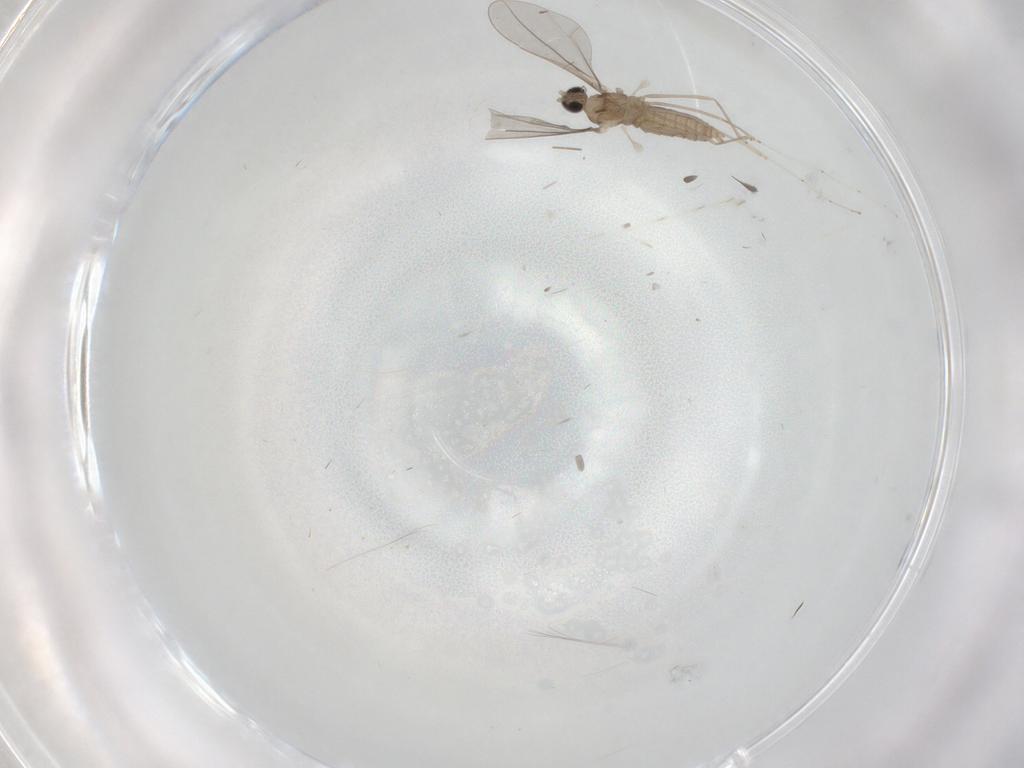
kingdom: Animalia
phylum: Arthropoda
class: Insecta
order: Diptera
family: Cecidomyiidae
